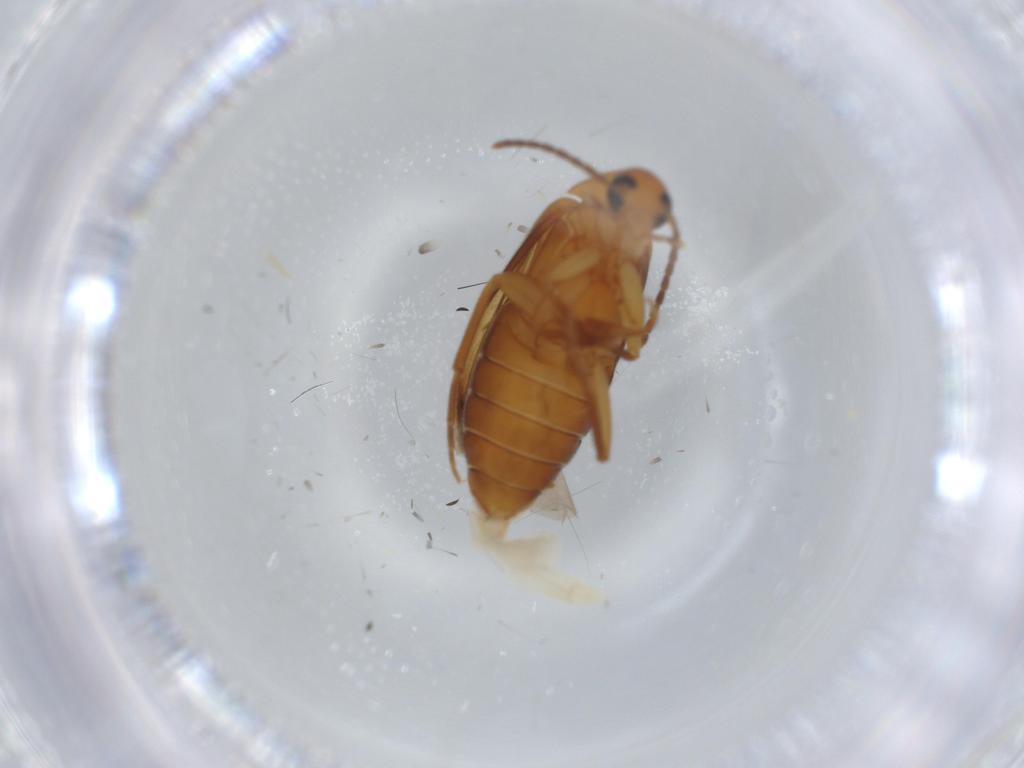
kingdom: Animalia
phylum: Arthropoda
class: Insecta
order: Coleoptera
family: Scraptiidae
